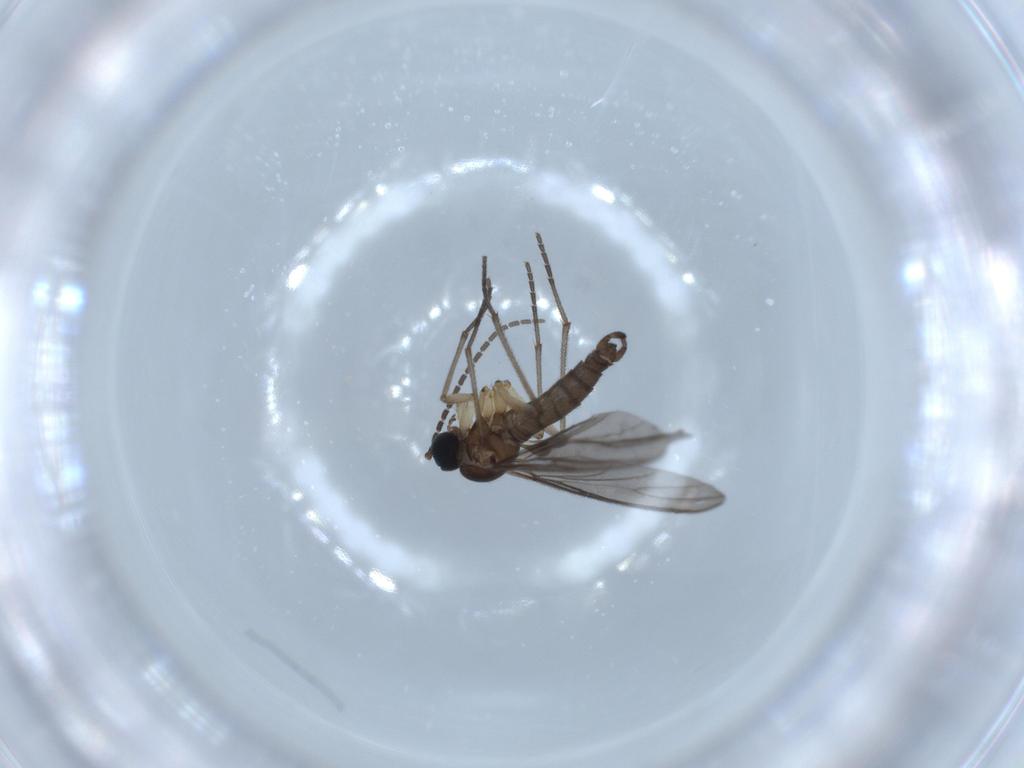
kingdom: Animalia
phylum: Arthropoda
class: Insecta
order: Diptera
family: Sciaridae
